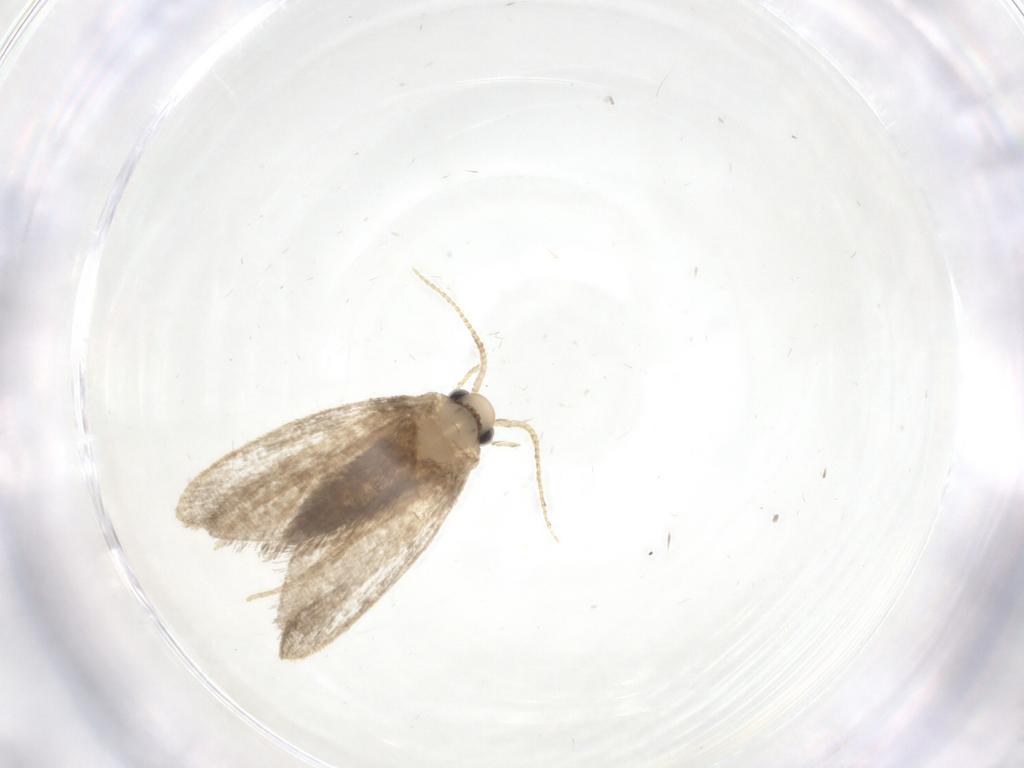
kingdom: Animalia
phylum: Arthropoda
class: Insecta
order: Lepidoptera
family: Psychidae
